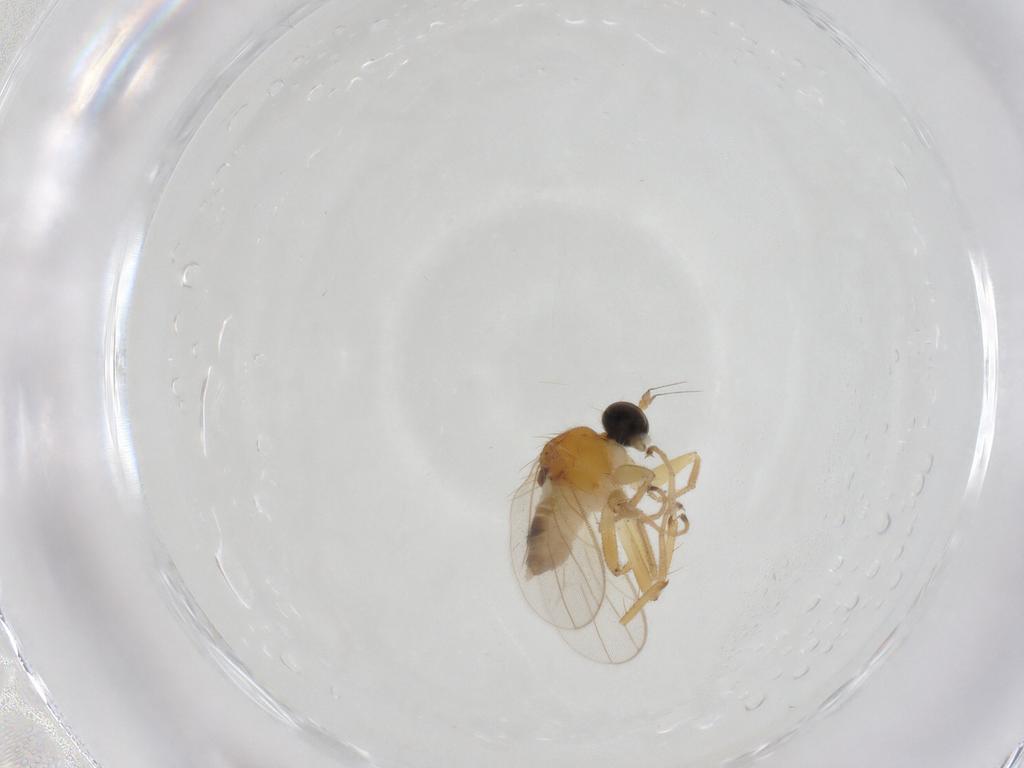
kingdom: Animalia
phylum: Arthropoda
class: Insecta
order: Diptera
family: Hybotidae
